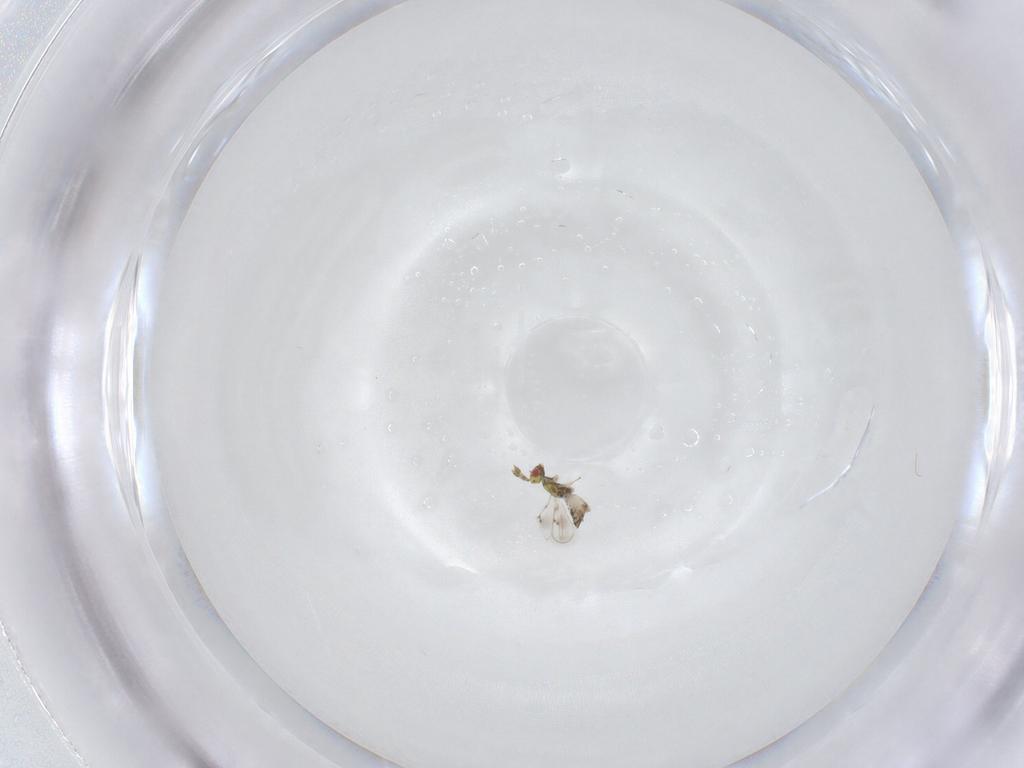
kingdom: Animalia
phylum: Arthropoda
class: Insecta
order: Hymenoptera
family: Eulophidae
